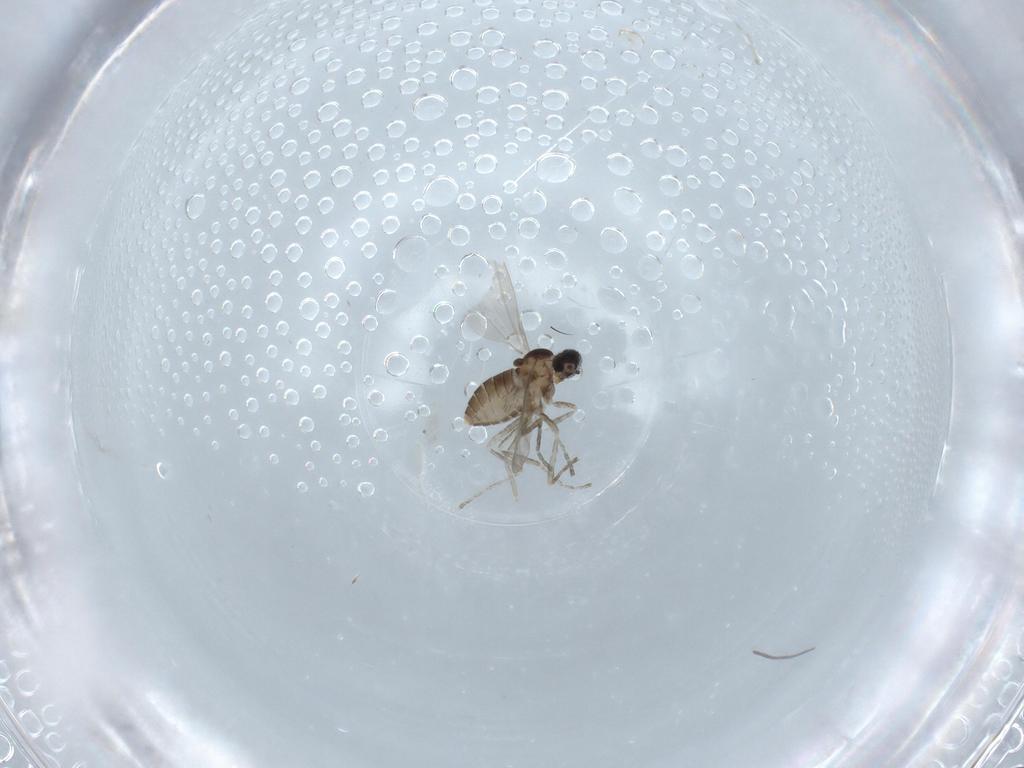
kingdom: Animalia
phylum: Arthropoda
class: Insecta
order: Diptera
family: Cecidomyiidae
